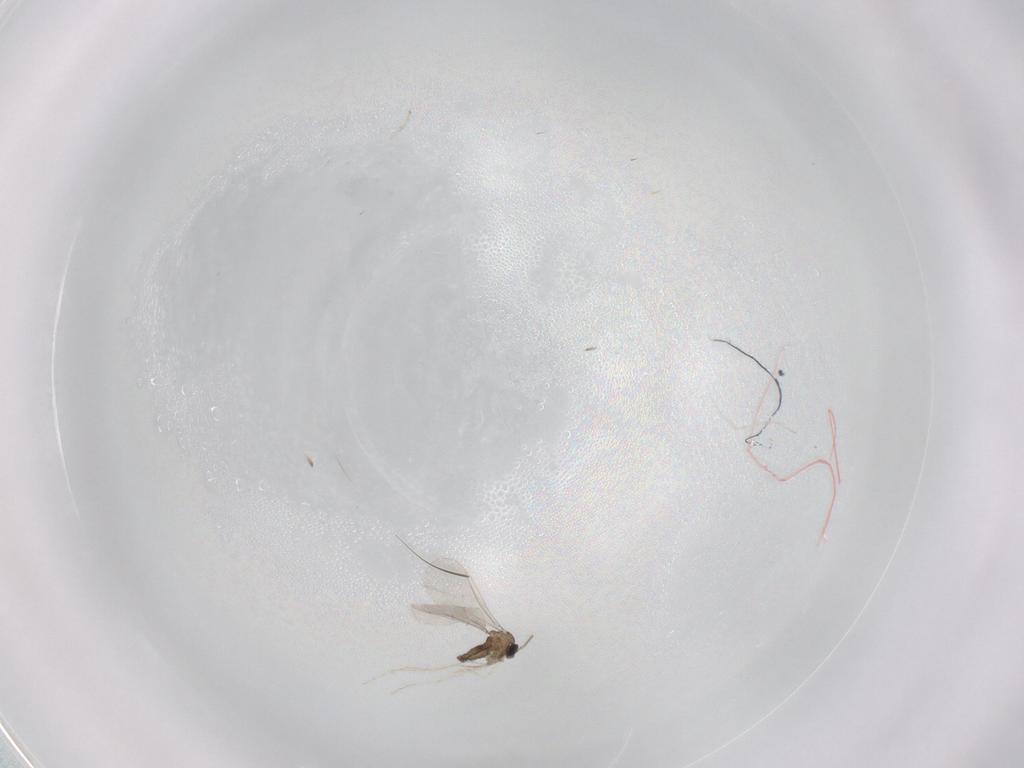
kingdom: Animalia
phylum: Arthropoda
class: Insecta
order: Diptera
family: Cecidomyiidae
